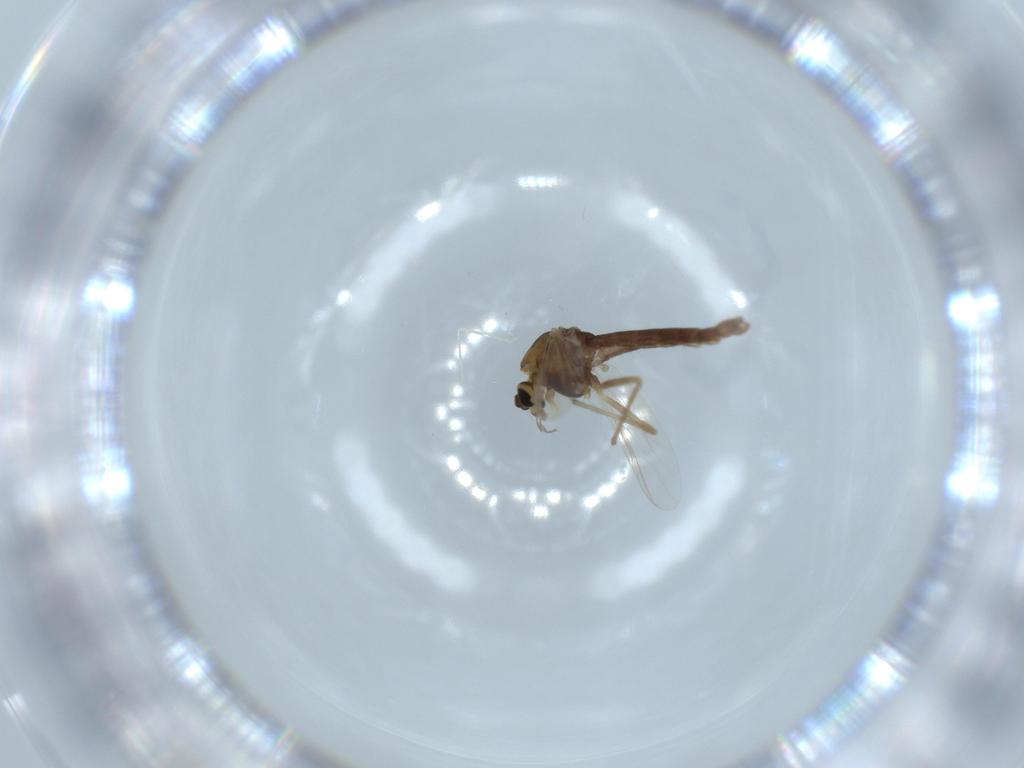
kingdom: Animalia
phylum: Arthropoda
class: Insecta
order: Diptera
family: Chironomidae
